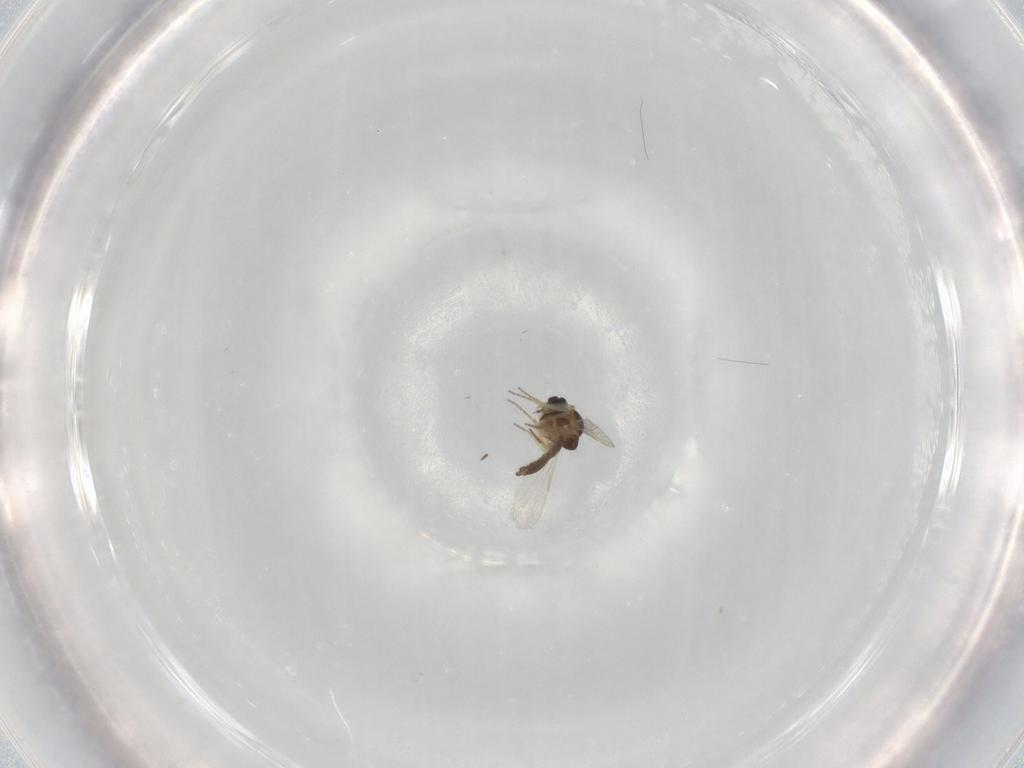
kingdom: Animalia
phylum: Arthropoda
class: Insecta
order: Diptera
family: Ceratopogonidae
